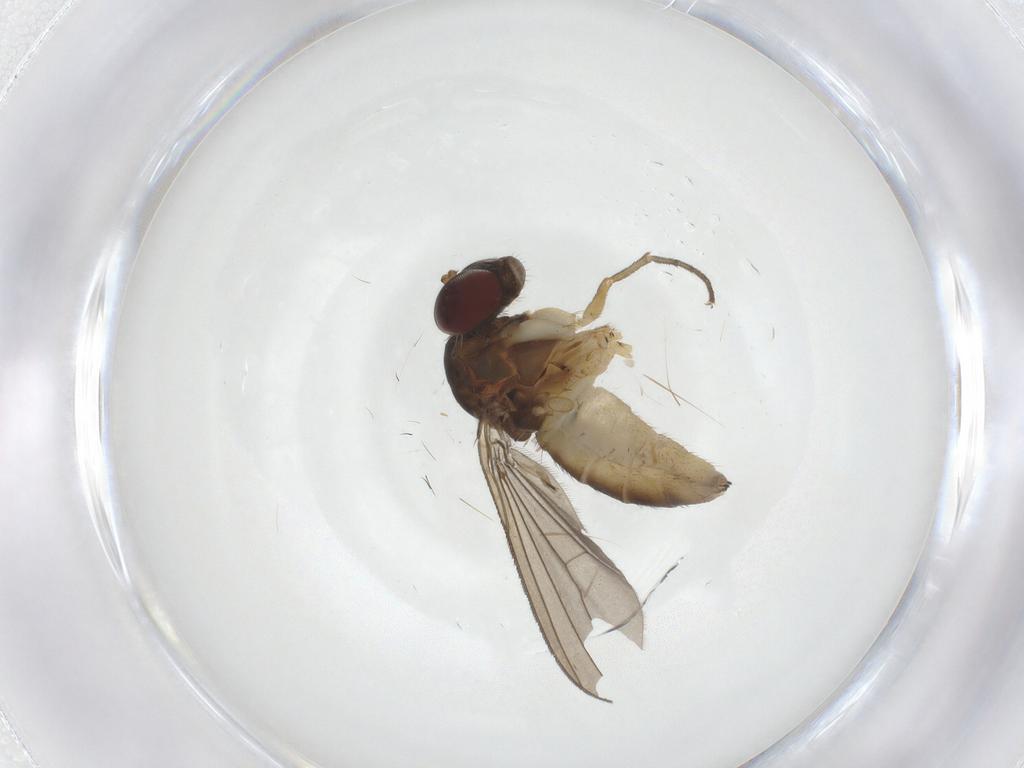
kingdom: Animalia
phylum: Arthropoda
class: Insecta
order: Diptera
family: Dolichopodidae
